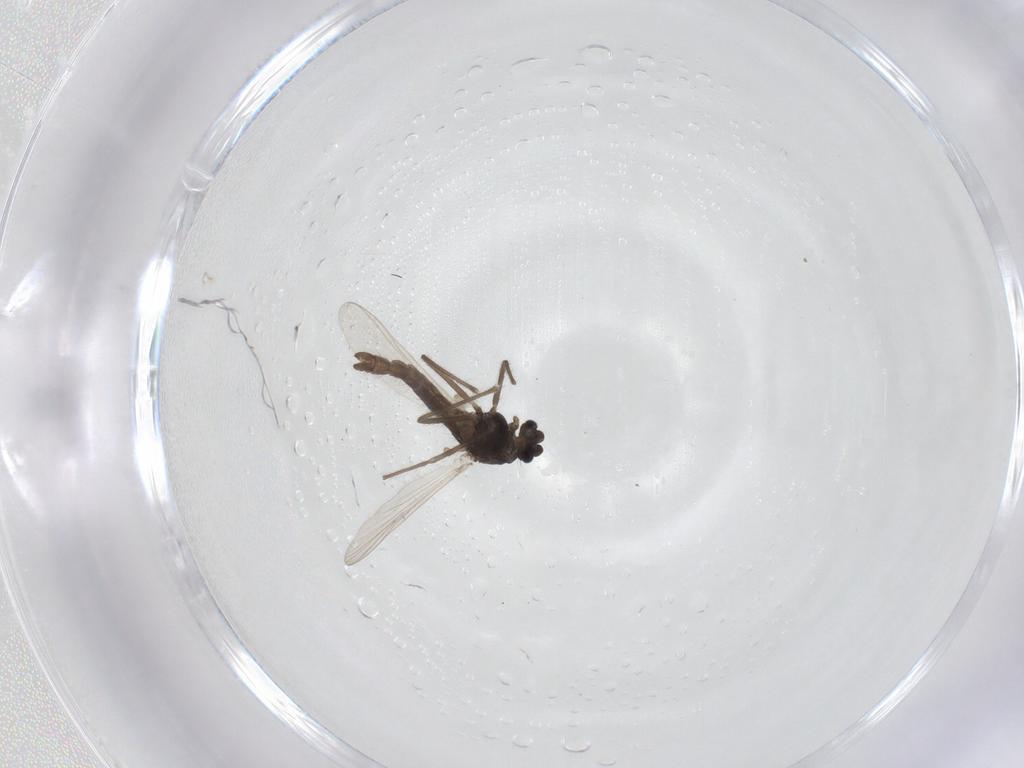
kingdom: Animalia
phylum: Arthropoda
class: Insecta
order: Diptera
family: Chironomidae
